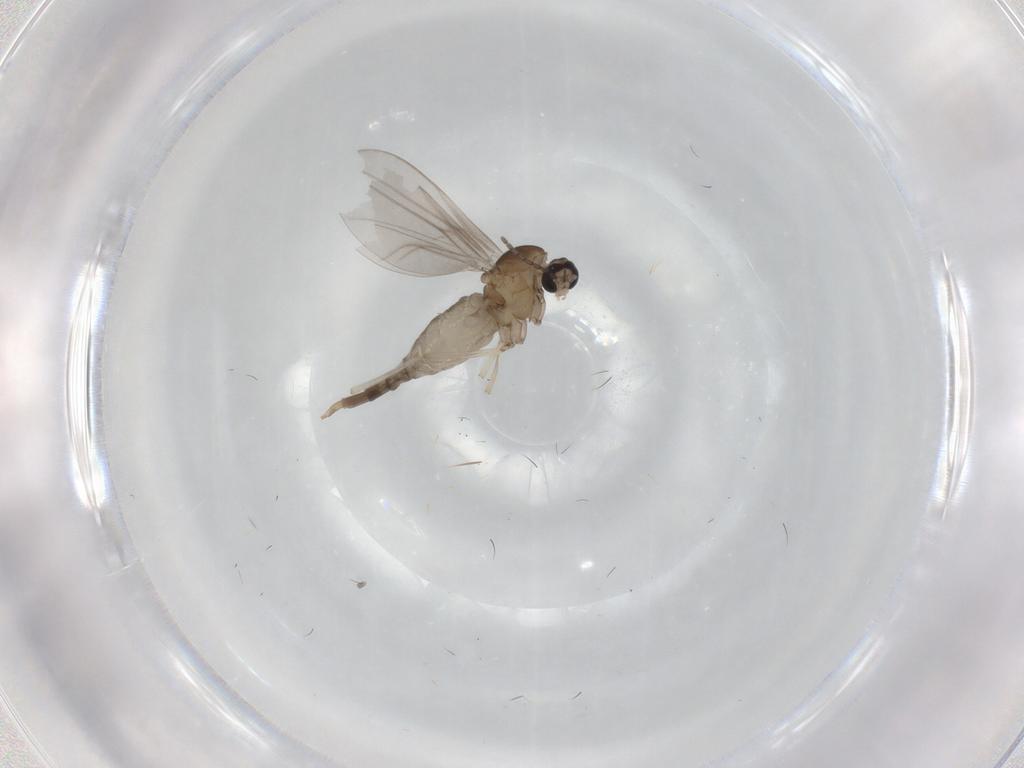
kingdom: Animalia
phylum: Arthropoda
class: Insecta
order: Diptera
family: Cecidomyiidae
